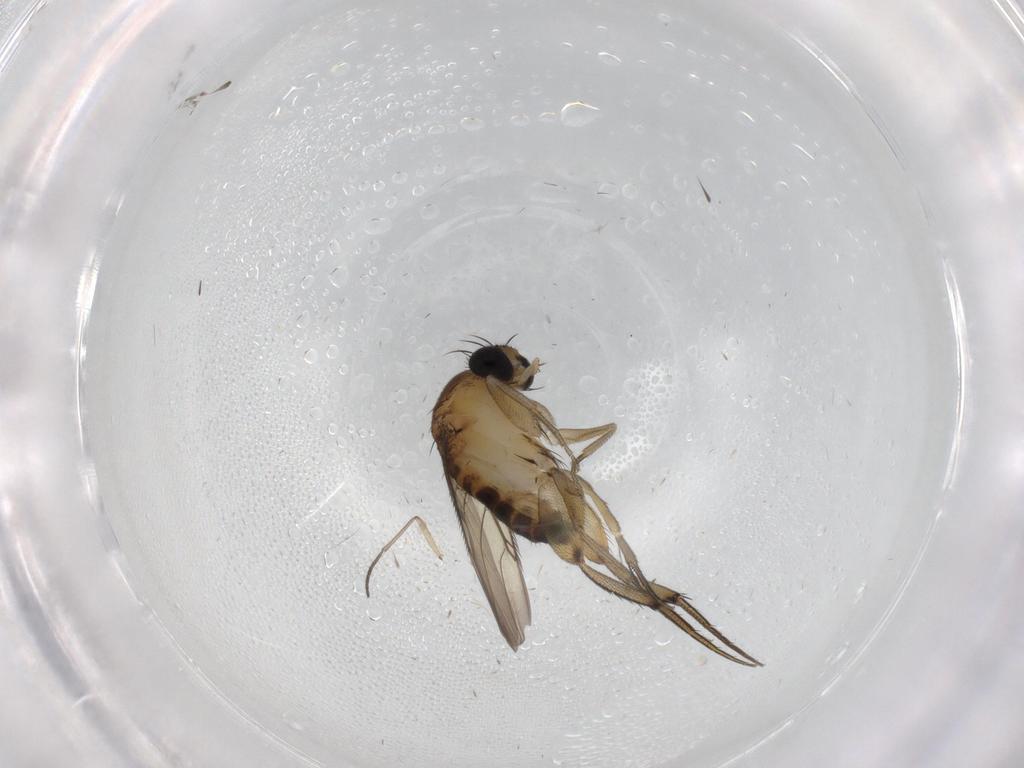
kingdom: Animalia
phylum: Arthropoda
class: Insecta
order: Diptera
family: Phoridae
